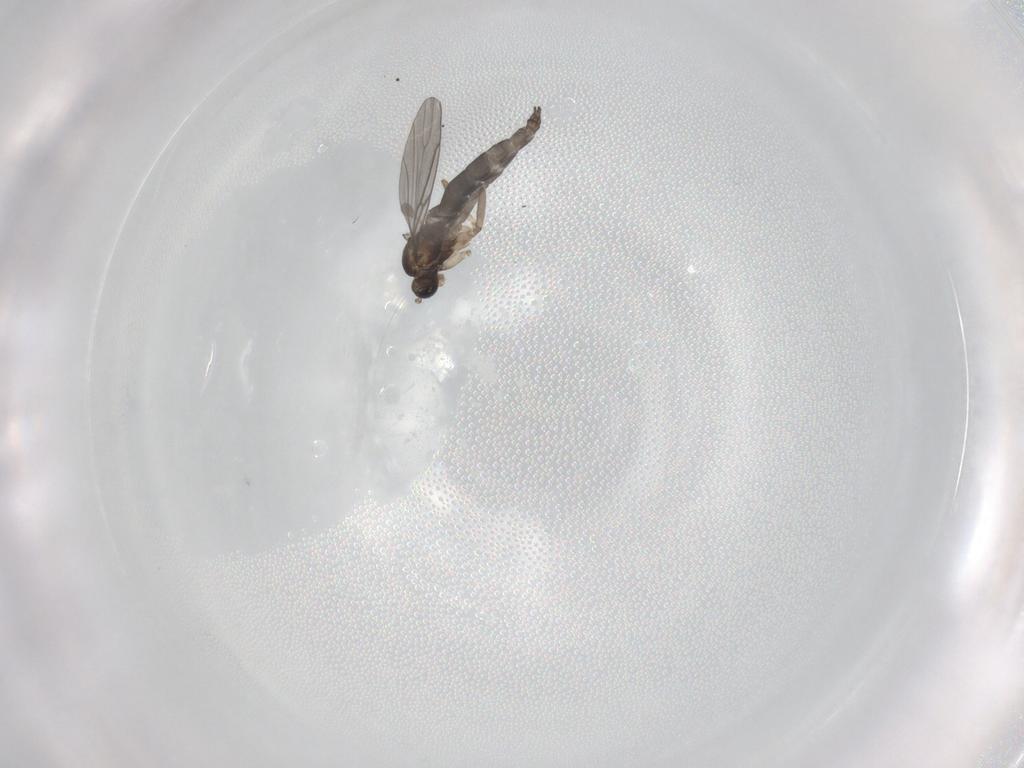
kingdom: Animalia
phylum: Arthropoda
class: Insecta
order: Diptera
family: Sciaridae
